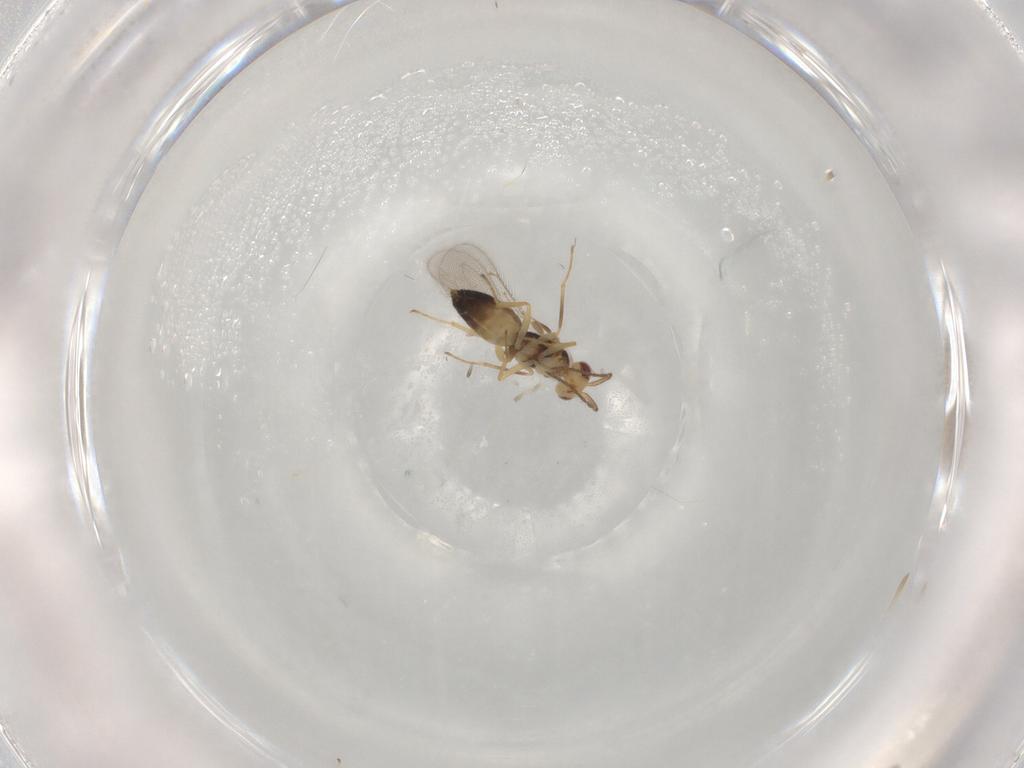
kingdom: Animalia
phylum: Arthropoda
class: Insecta
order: Hymenoptera
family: Eulophidae
